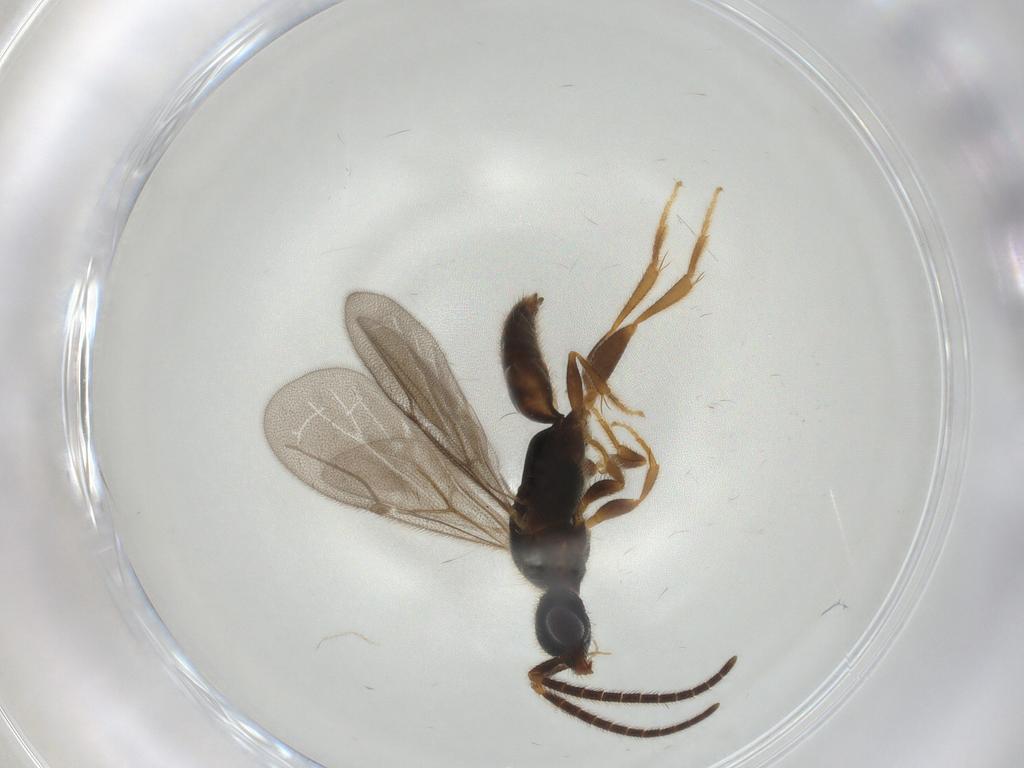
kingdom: Animalia
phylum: Arthropoda
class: Insecta
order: Hymenoptera
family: Bethylidae
